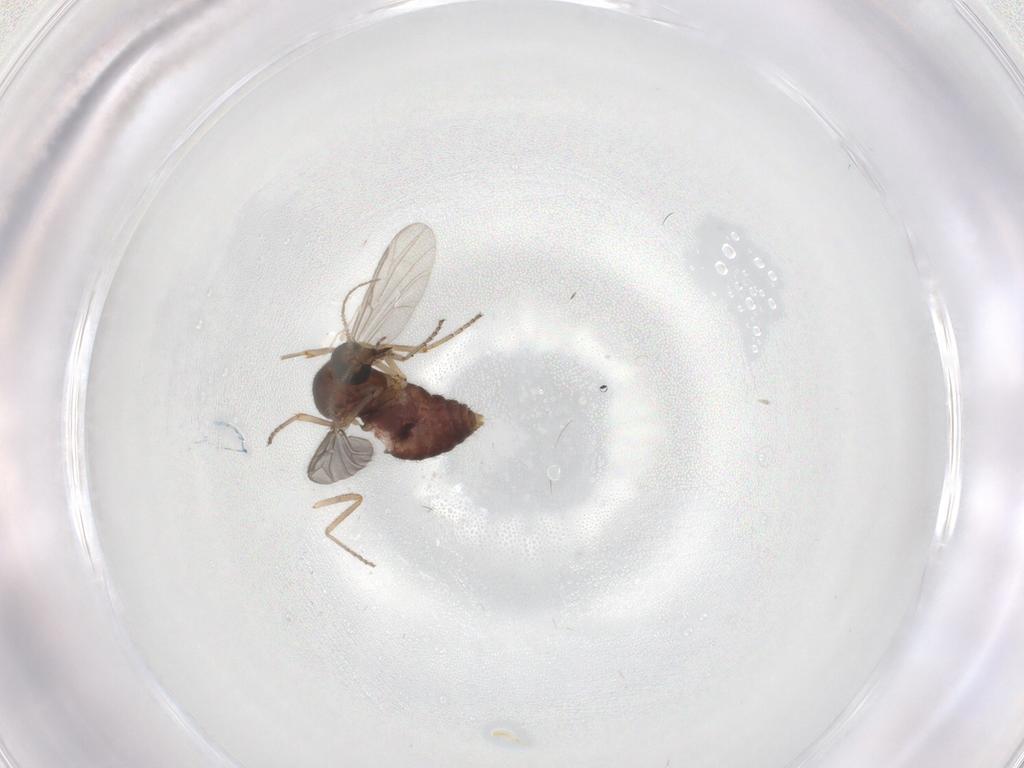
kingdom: Animalia
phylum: Arthropoda
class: Insecta
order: Diptera
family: Ceratopogonidae
